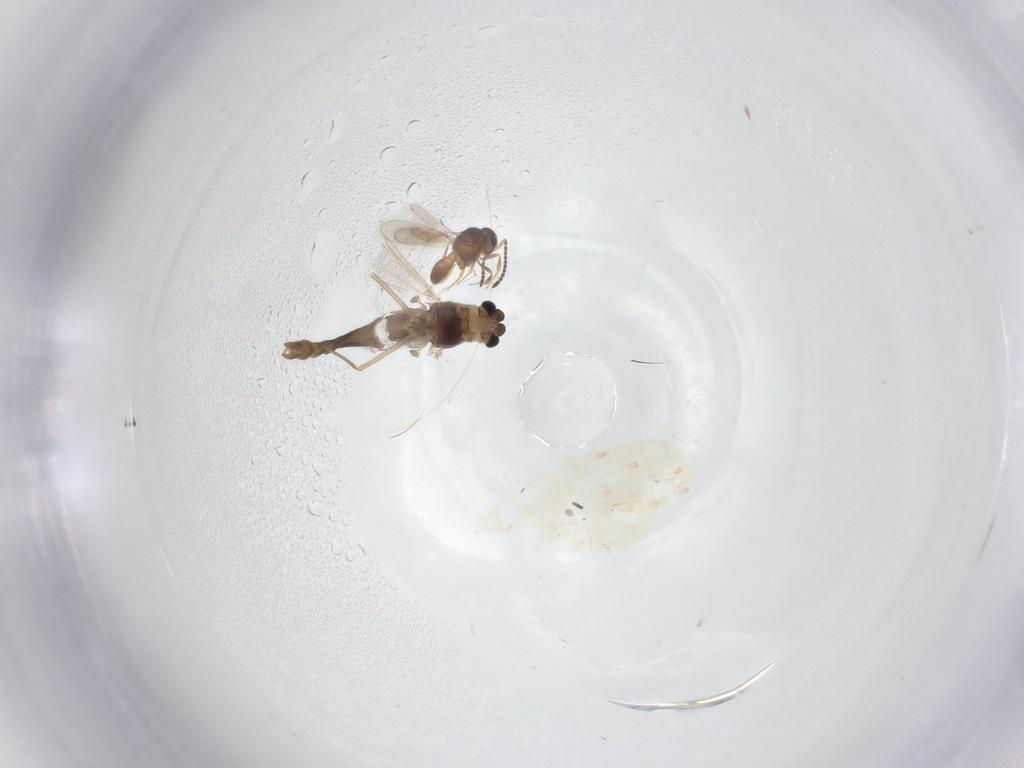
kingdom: Animalia
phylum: Arthropoda
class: Insecta
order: Diptera
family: Chironomidae
